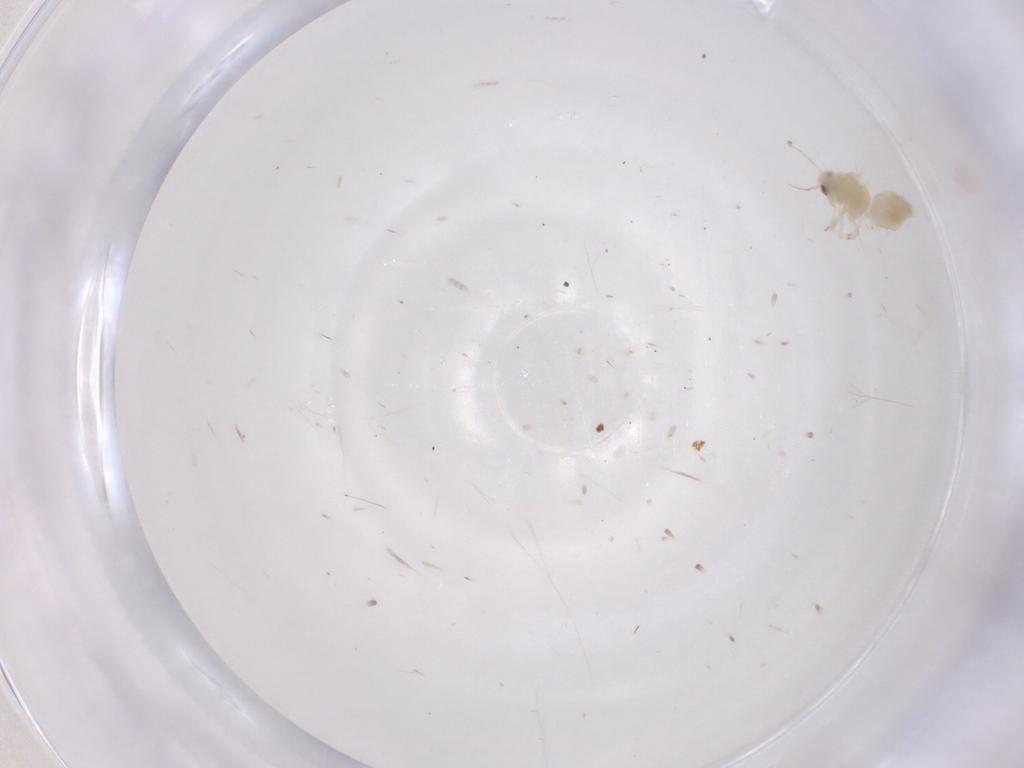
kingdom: Animalia
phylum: Arthropoda
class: Insecta
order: Hemiptera
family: Aleyrodidae
